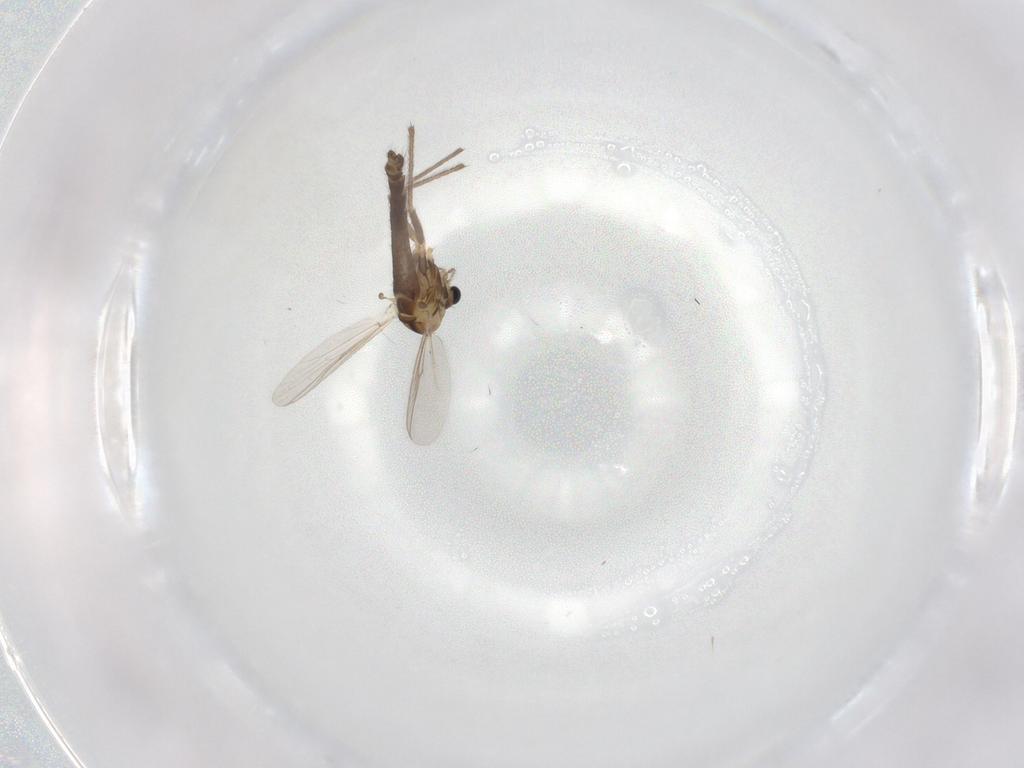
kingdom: Animalia
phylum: Arthropoda
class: Insecta
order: Diptera
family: Chironomidae
